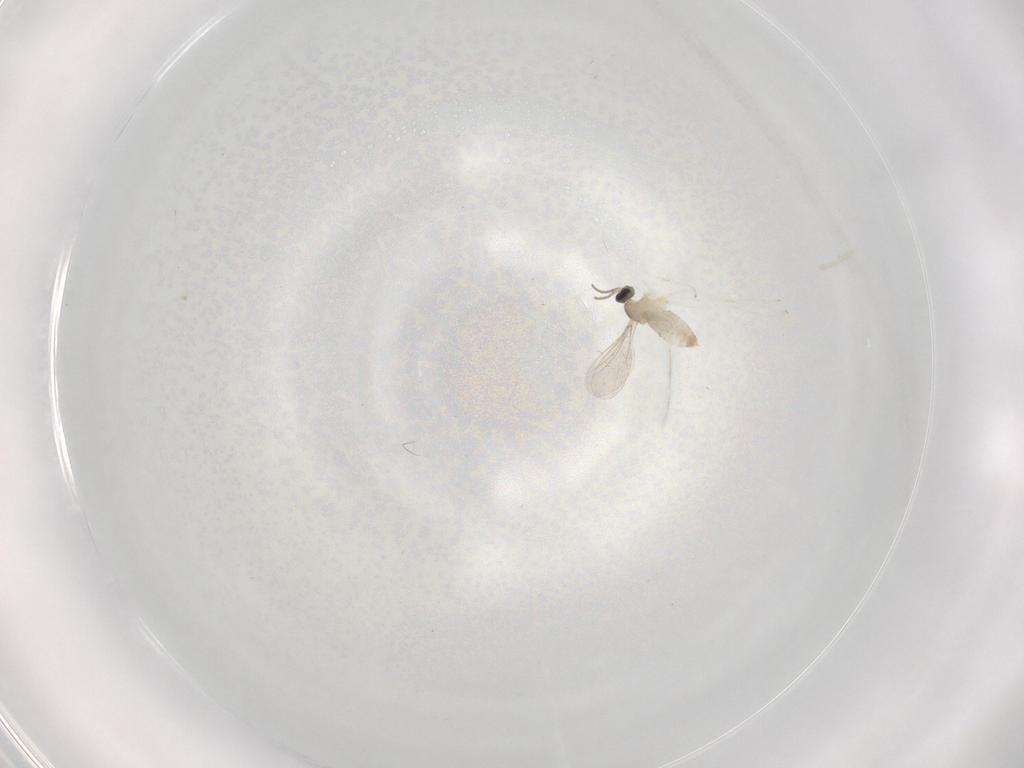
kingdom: Animalia
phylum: Arthropoda
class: Insecta
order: Diptera
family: Cecidomyiidae
